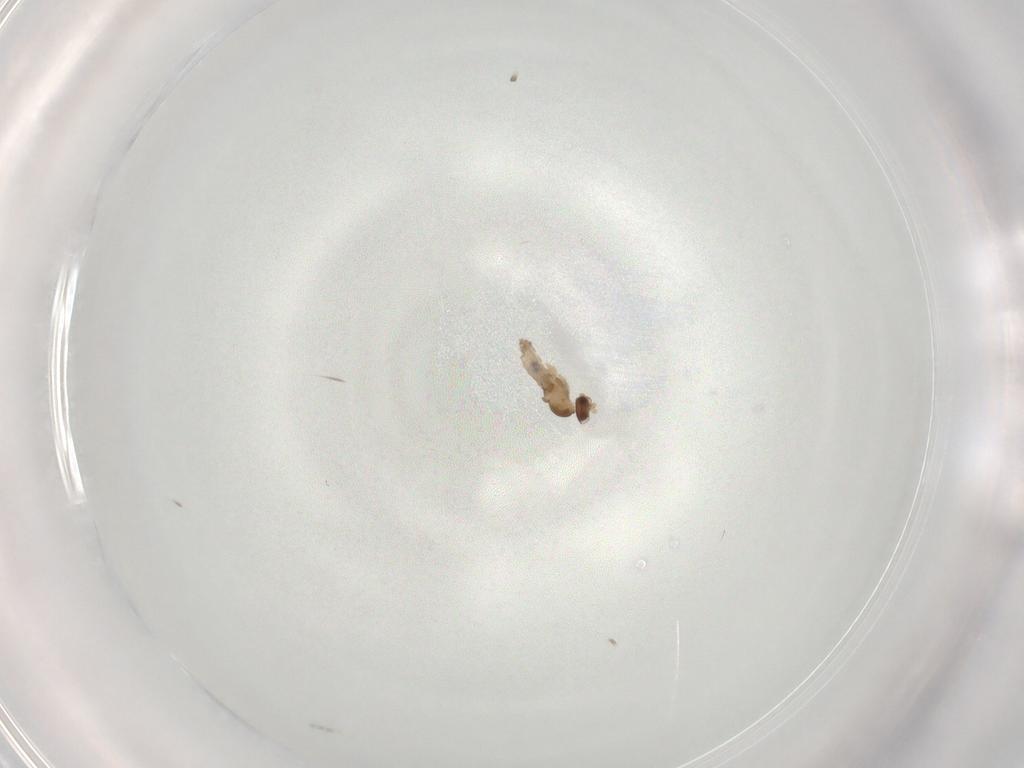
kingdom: Animalia
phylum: Arthropoda
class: Insecta
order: Diptera
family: Cecidomyiidae
